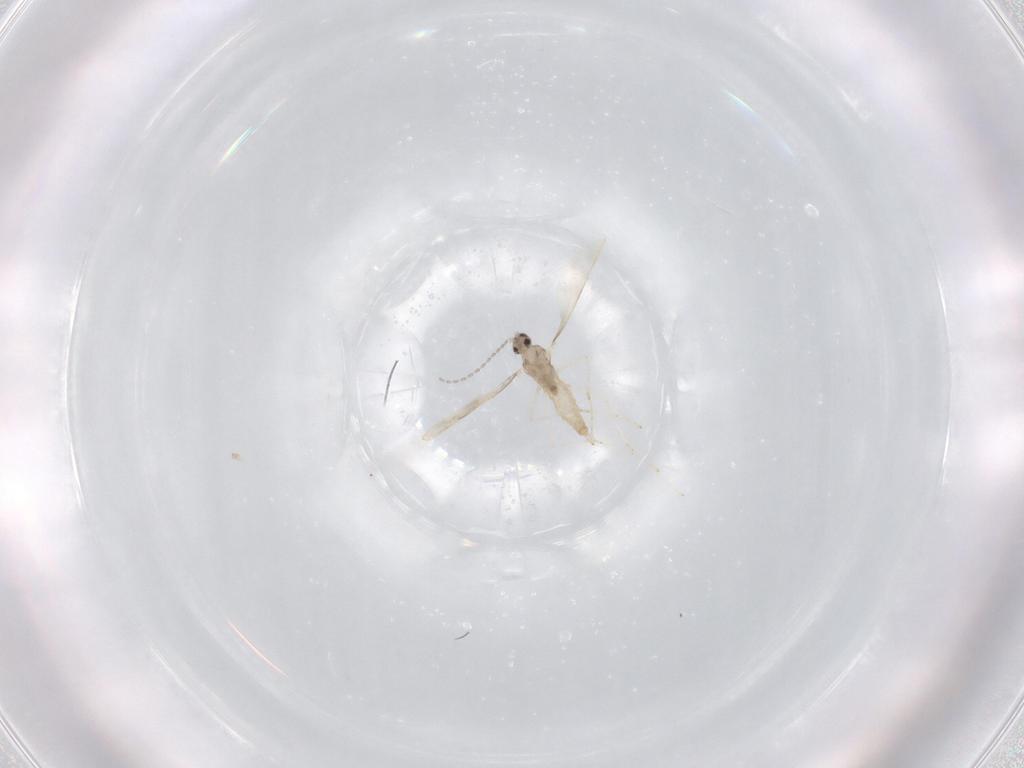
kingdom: Animalia
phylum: Arthropoda
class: Insecta
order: Diptera
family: Cecidomyiidae
